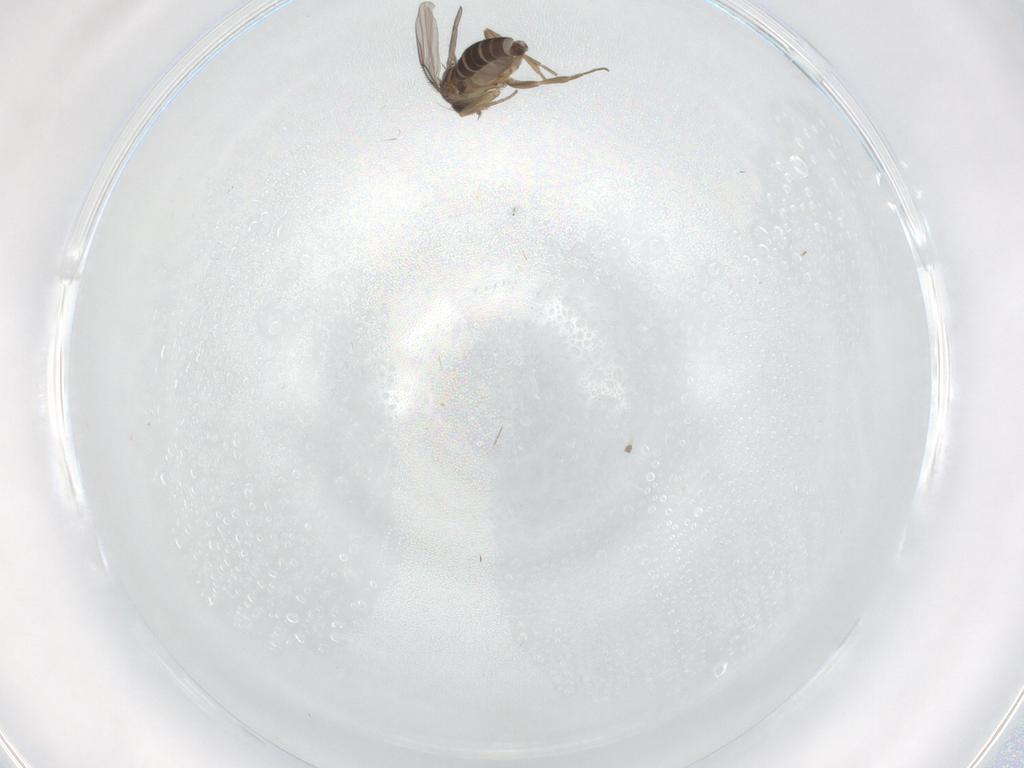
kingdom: Animalia
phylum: Arthropoda
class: Insecta
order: Diptera
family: Phoridae
